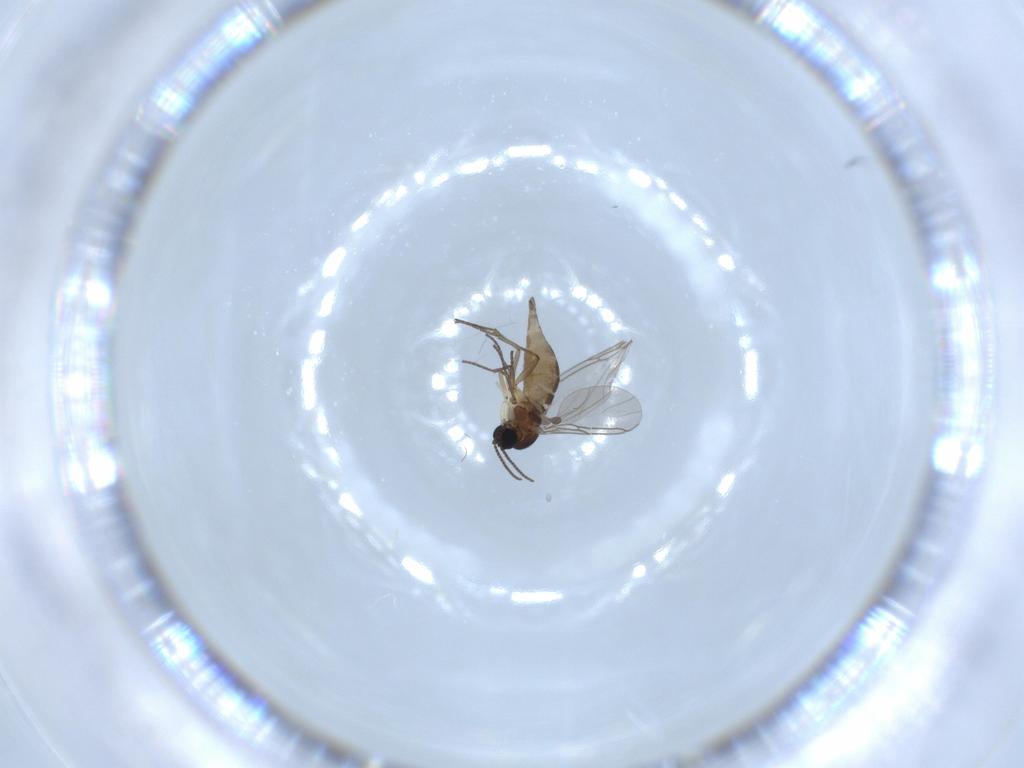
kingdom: Animalia
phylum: Arthropoda
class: Insecta
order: Diptera
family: Sciaridae
